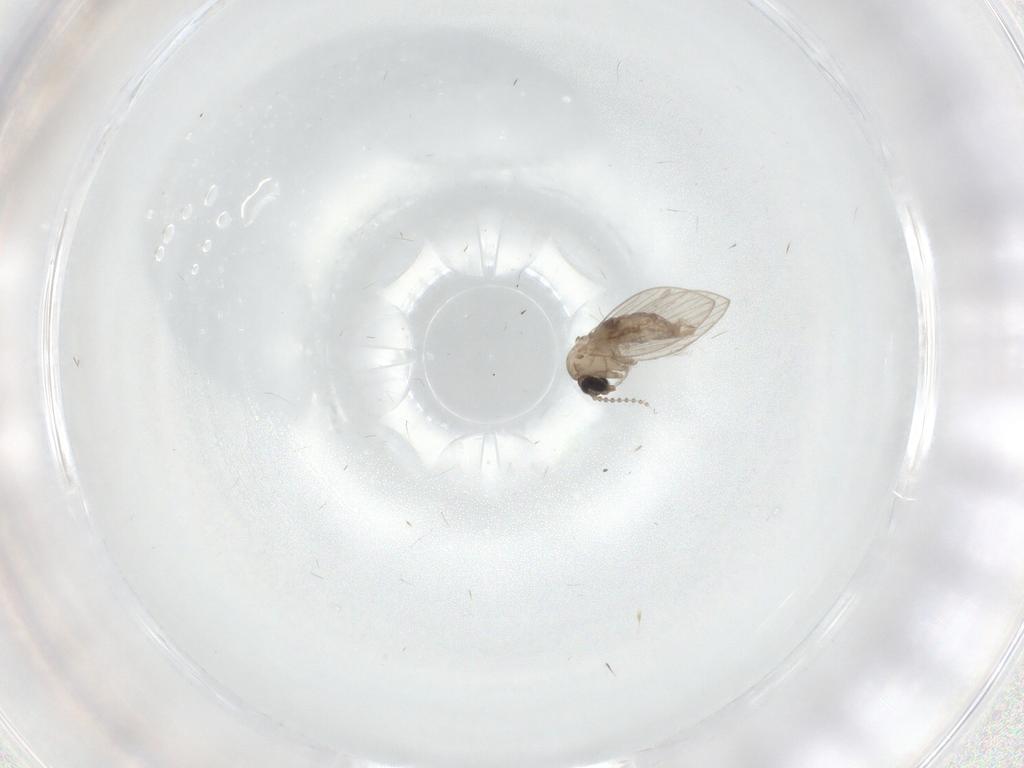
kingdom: Animalia
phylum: Arthropoda
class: Insecta
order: Diptera
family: Psychodidae
